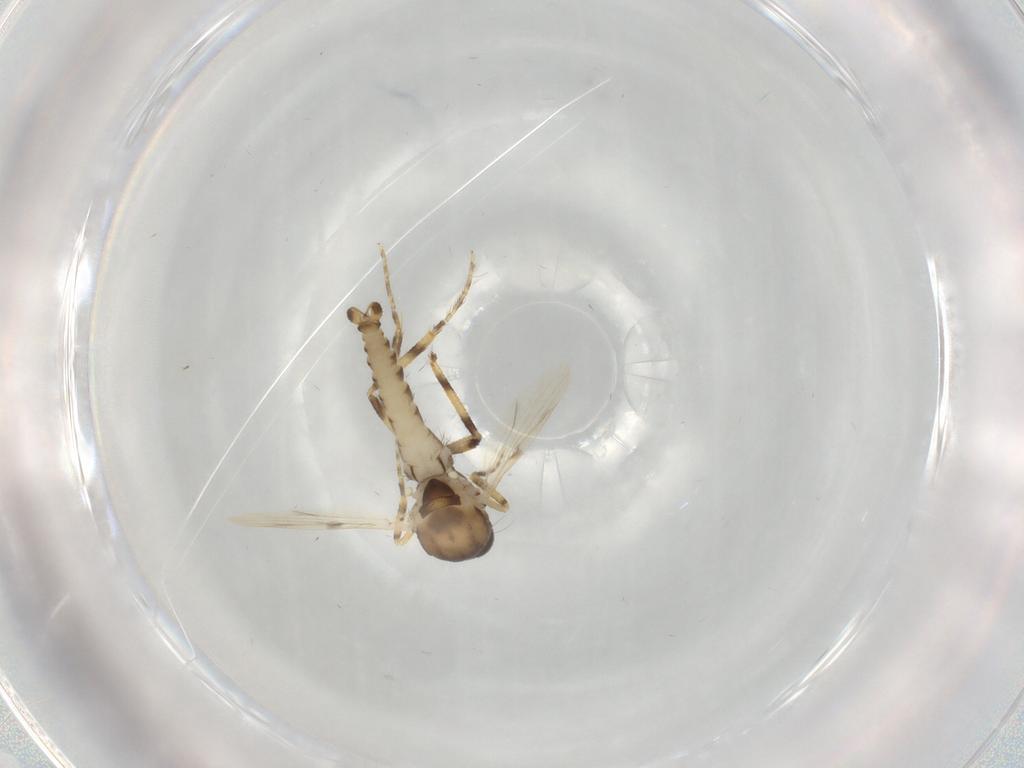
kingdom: Animalia
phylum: Arthropoda
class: Insecta
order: Diptera
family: Ceratopogonidae
